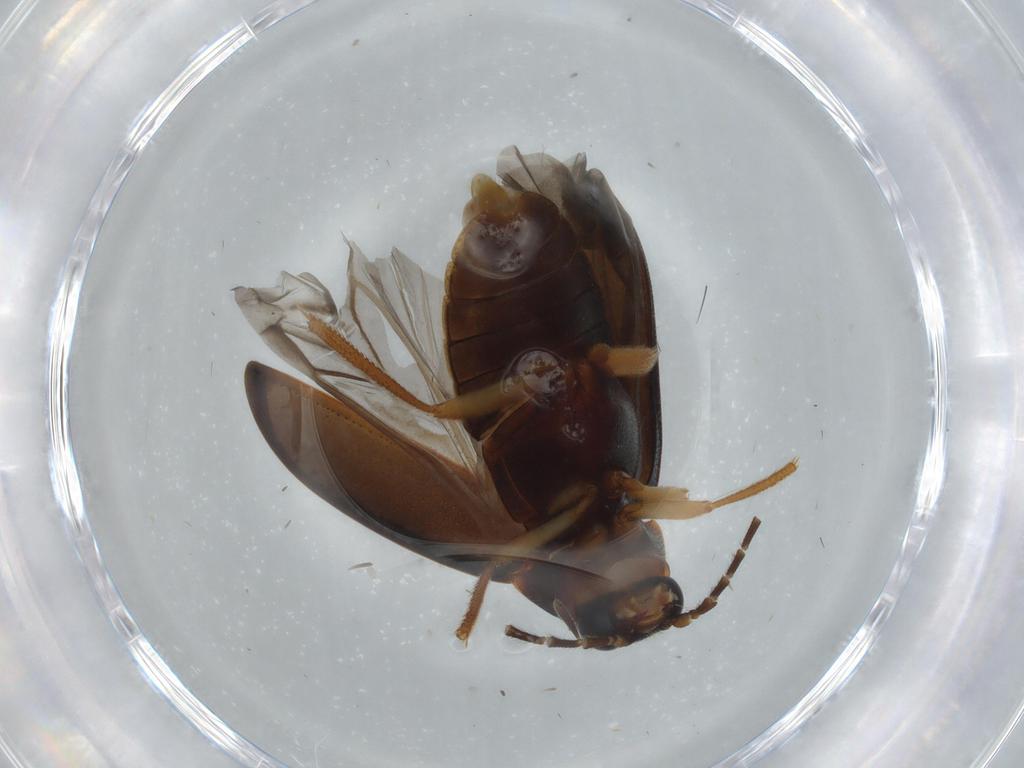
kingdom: Animalia
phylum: Arthropoda
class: Insecta
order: Coleoptera
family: Ptilodactylidae
